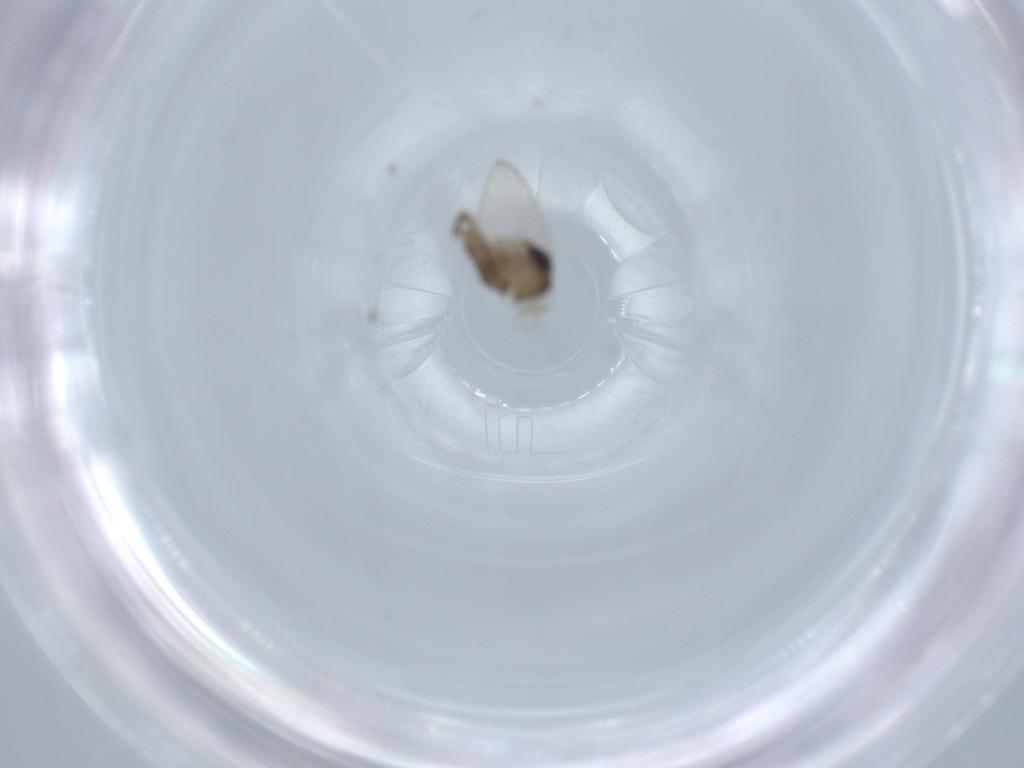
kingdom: Animalia
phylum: Arthropoda
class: Insecta
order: Diptera
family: Psychodidae
